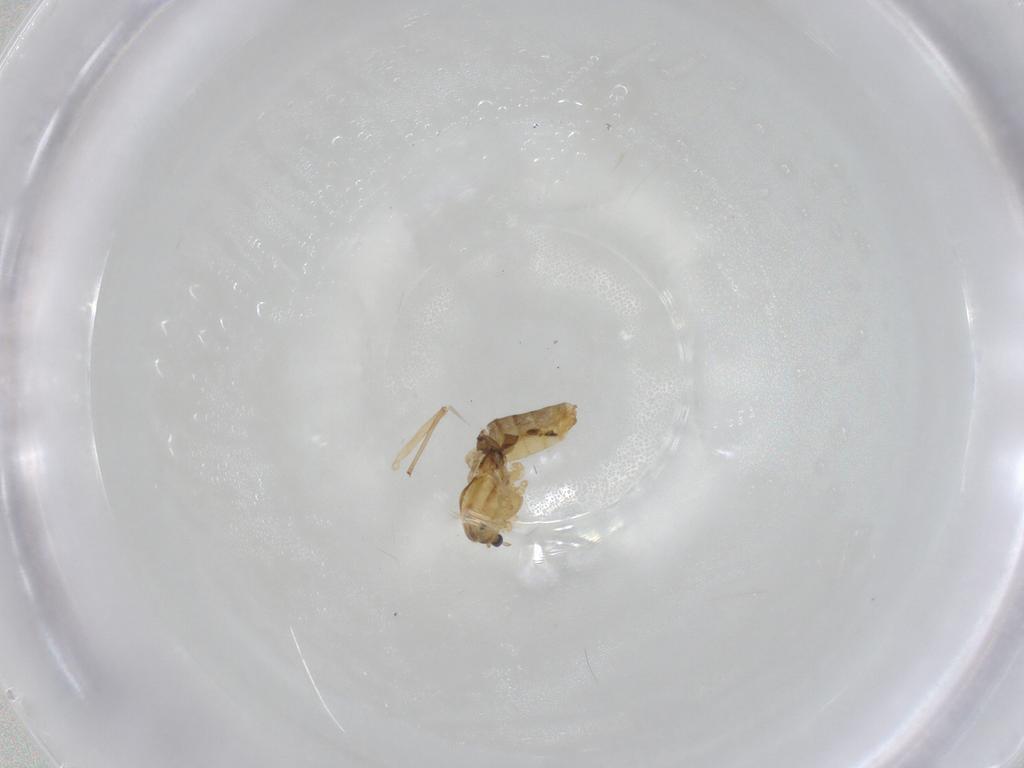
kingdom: Animalia
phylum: Arthropoda
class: Insecta
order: Diptera
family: Chironomidae
